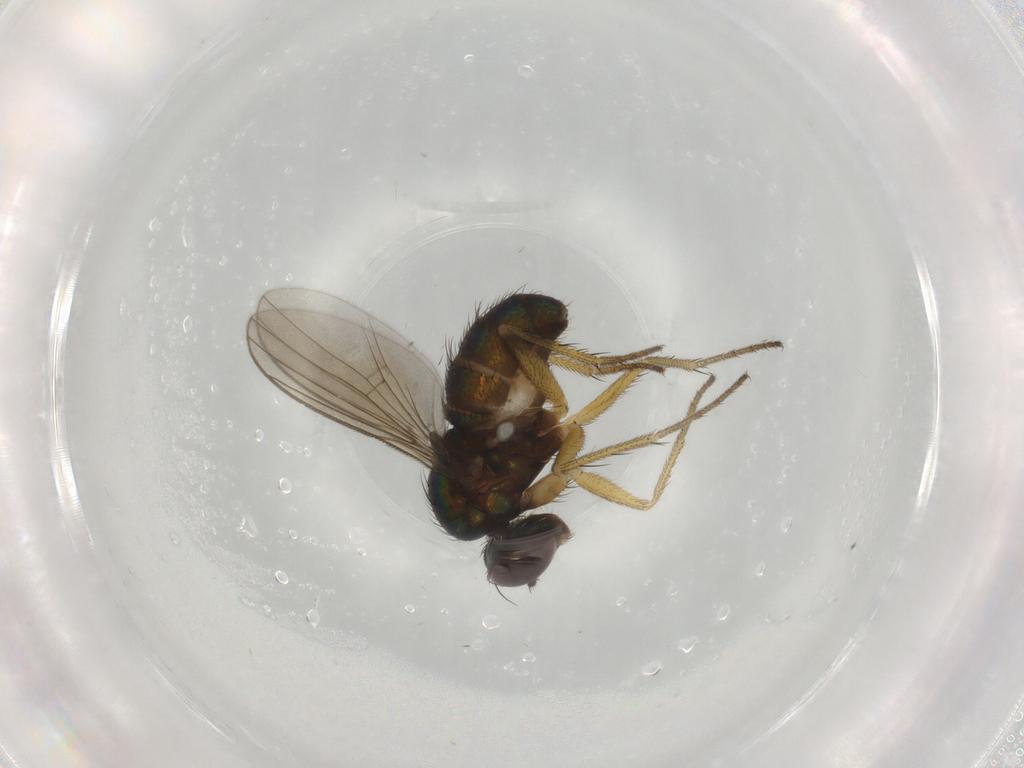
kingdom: Animalia
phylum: Arthropoda
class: Insecta
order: Diptera
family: Dolichopodidae
